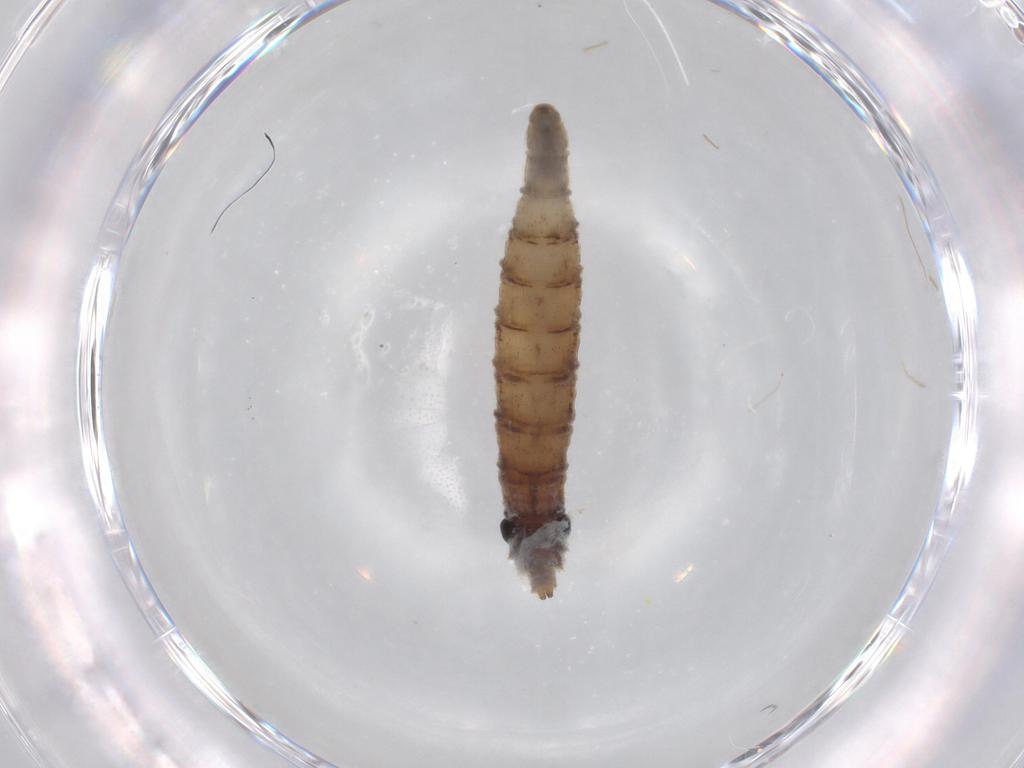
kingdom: Animalia
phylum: Arthropoda
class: Insecta
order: Diptera
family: Drosophilidae
